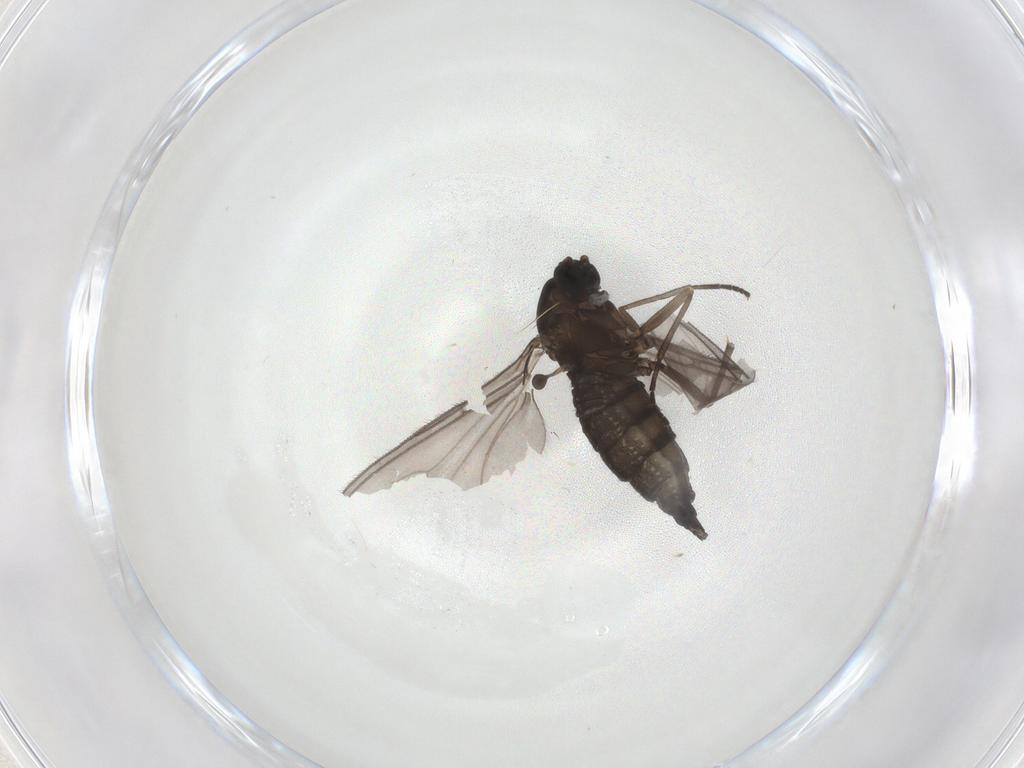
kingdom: Animalia
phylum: Arthropoda
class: Insecta
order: Diptera
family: Sciaridae
